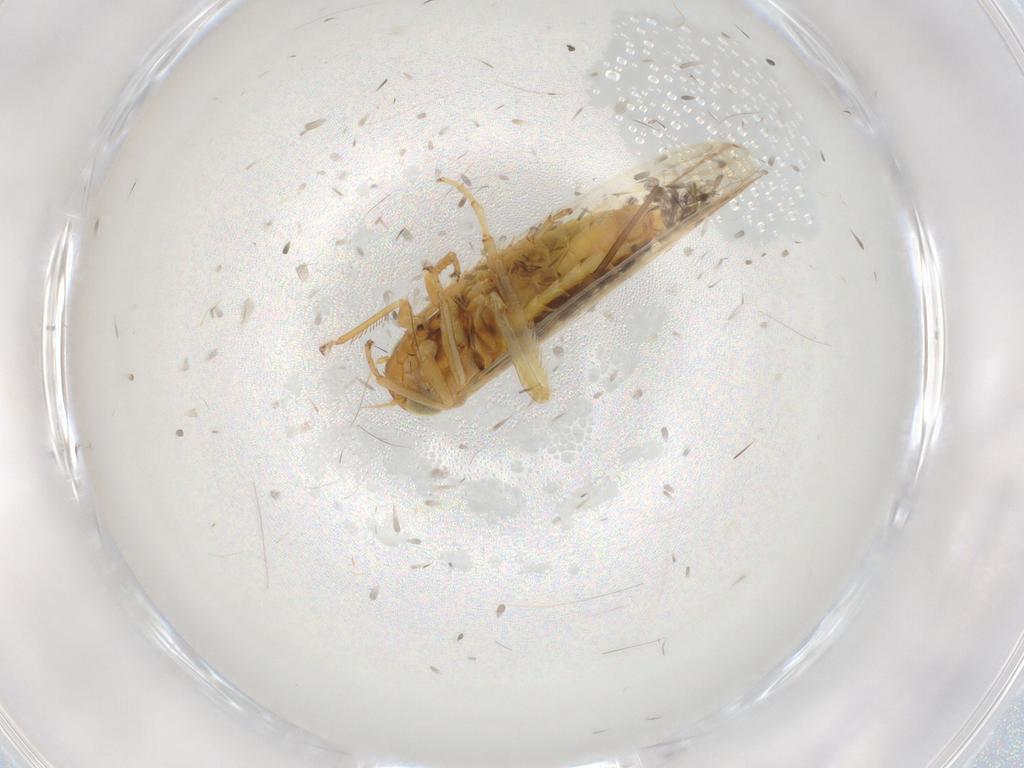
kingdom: Animalia
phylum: Arthropoda
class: Insecta
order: Hemiptera
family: Cicadellidae
